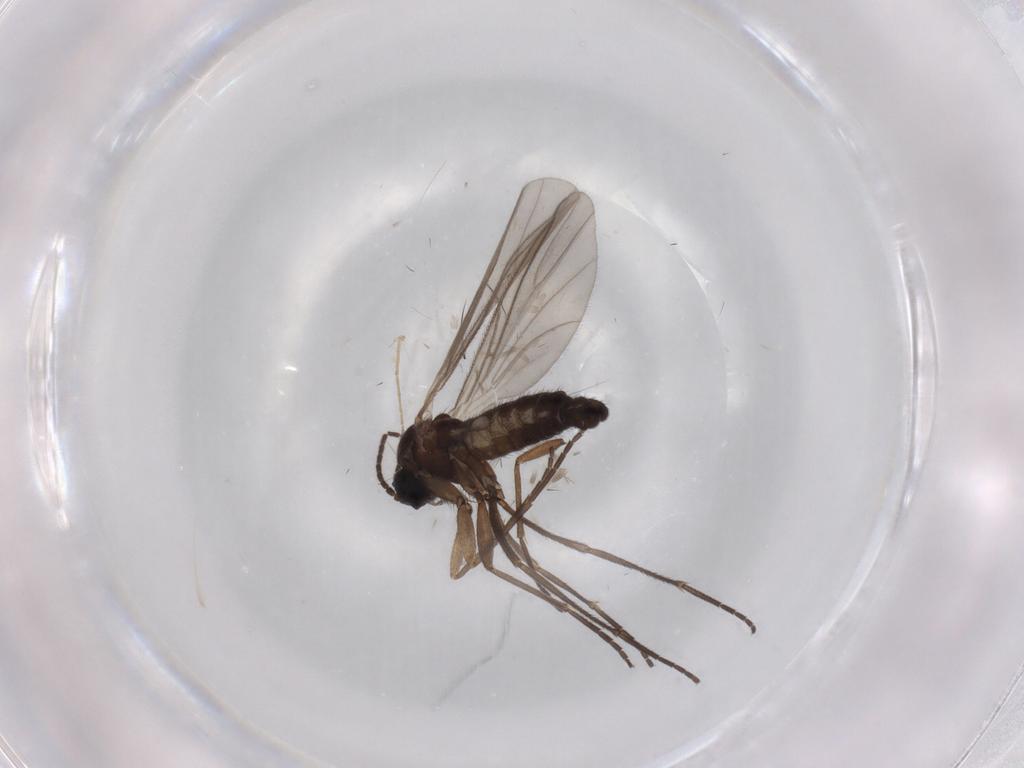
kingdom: Animalia
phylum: Arthropoda
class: Insecta
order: Diptera
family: Sciaridae
